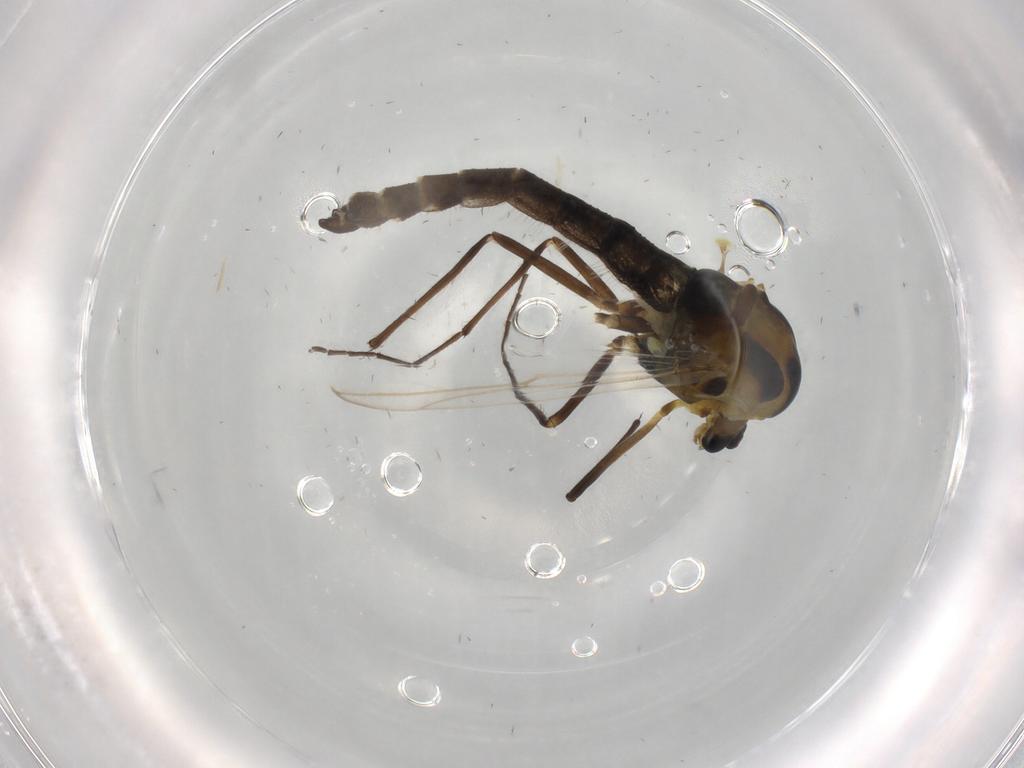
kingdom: Animalia
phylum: Arthropoda
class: Insecta
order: Diptera
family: Chironomidae
